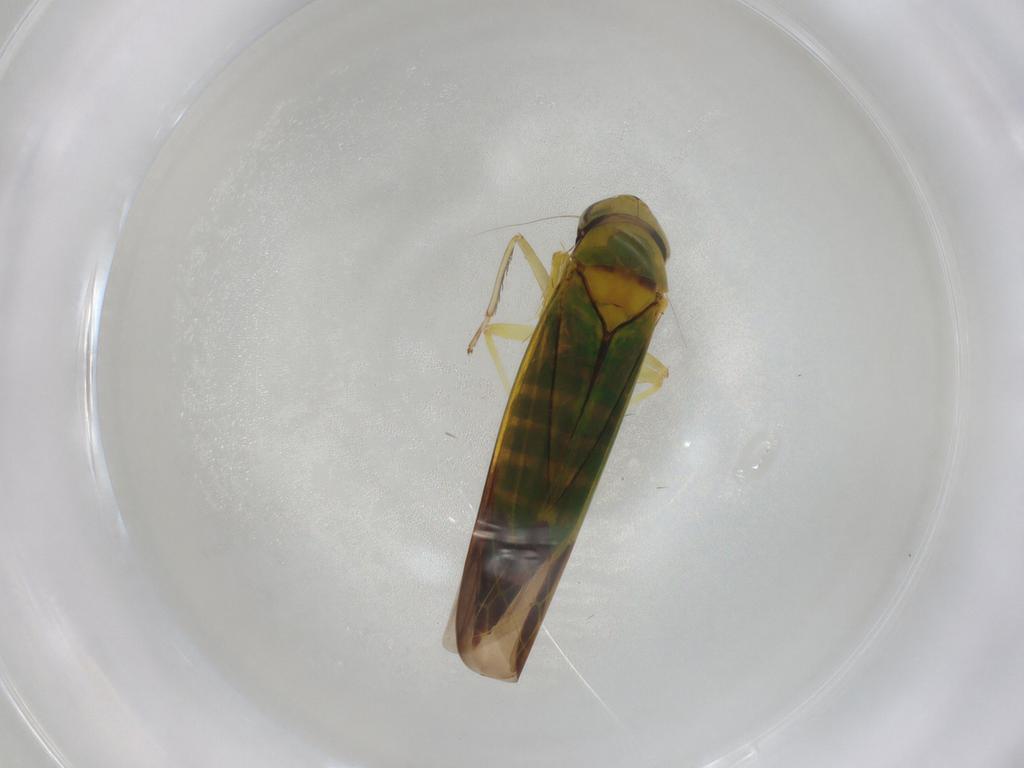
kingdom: Animalia
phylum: Arthropoda
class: Insecta
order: Hemiptera
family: Cicadellidae
